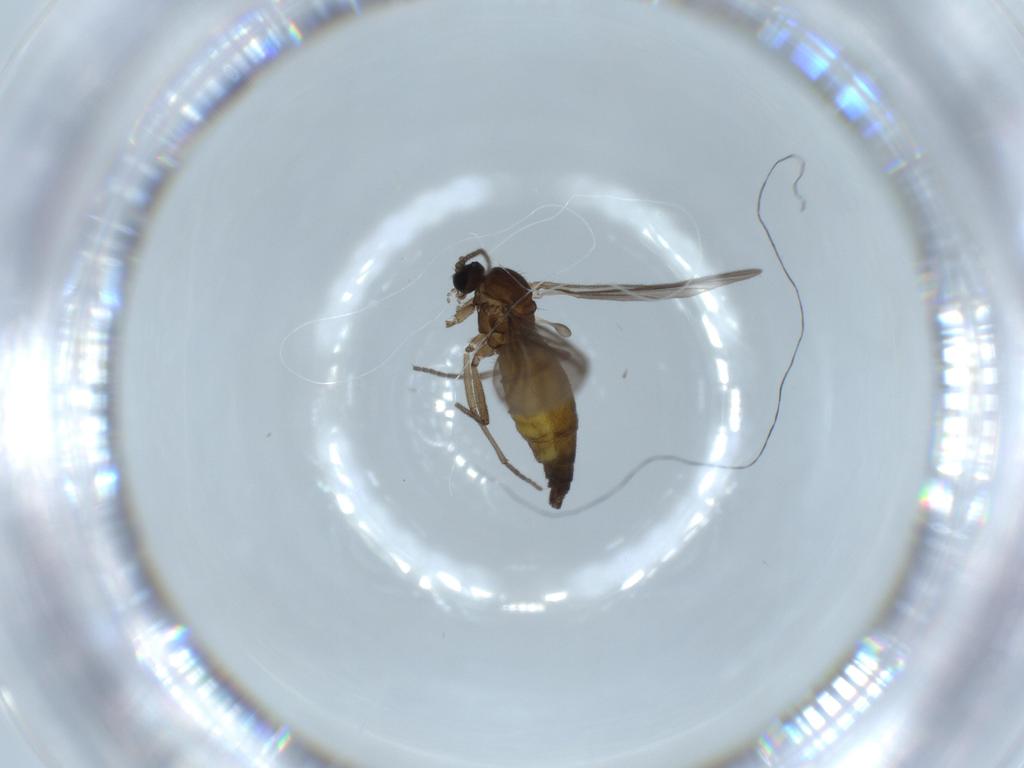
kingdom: Animalia
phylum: Arthropoda
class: Insecta
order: Diptera
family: Sciaridae
